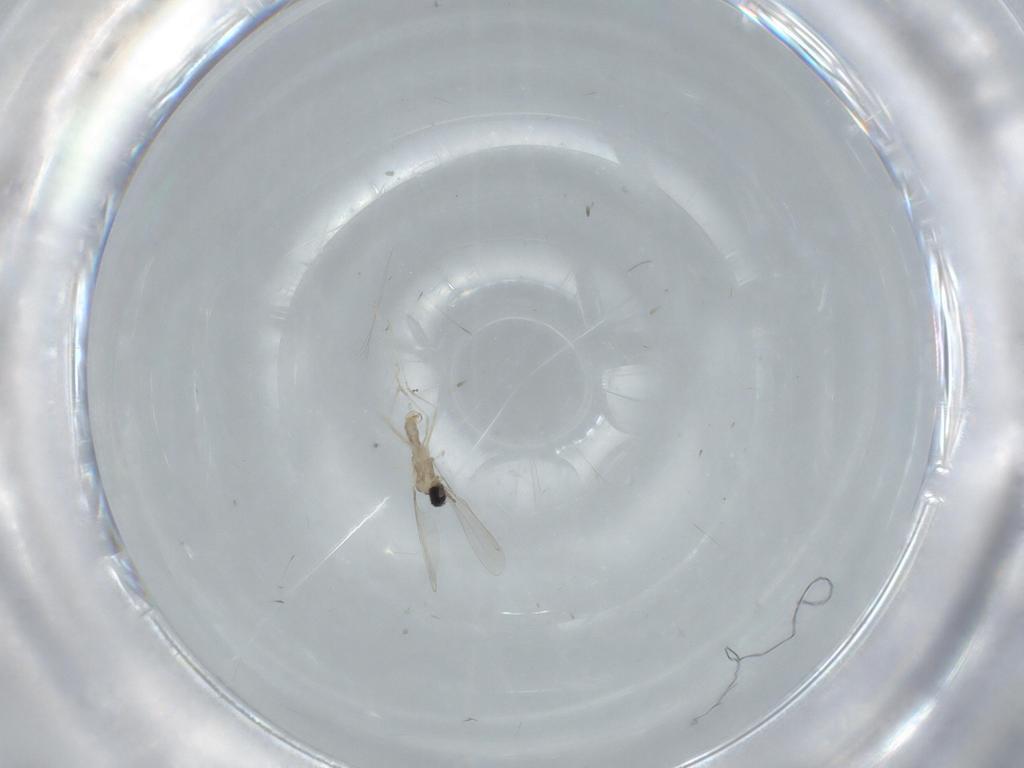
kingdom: Animalia
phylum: Arthropoda
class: Insecta
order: Diptera
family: Cecidomyiidae
